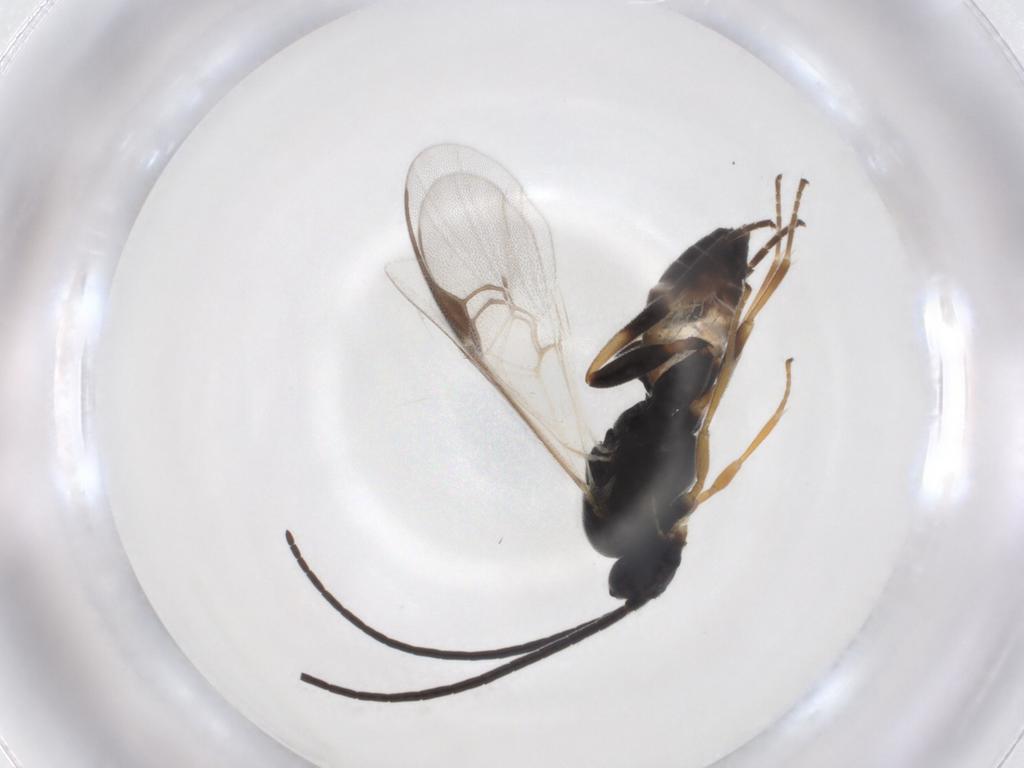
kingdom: Animalia
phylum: Arthropoda
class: Insecta
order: Hymenoptera
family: Braconidae
